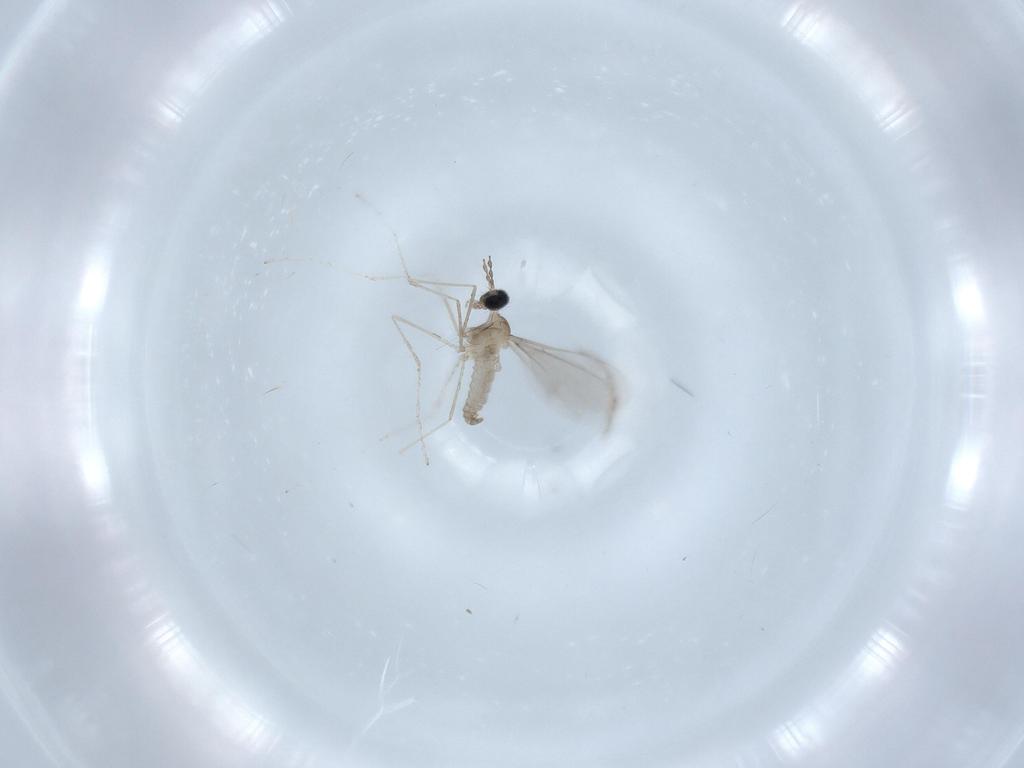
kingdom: Animalia
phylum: Arthropoda
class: Insecta
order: Diptera
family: Cecidomyiidae
